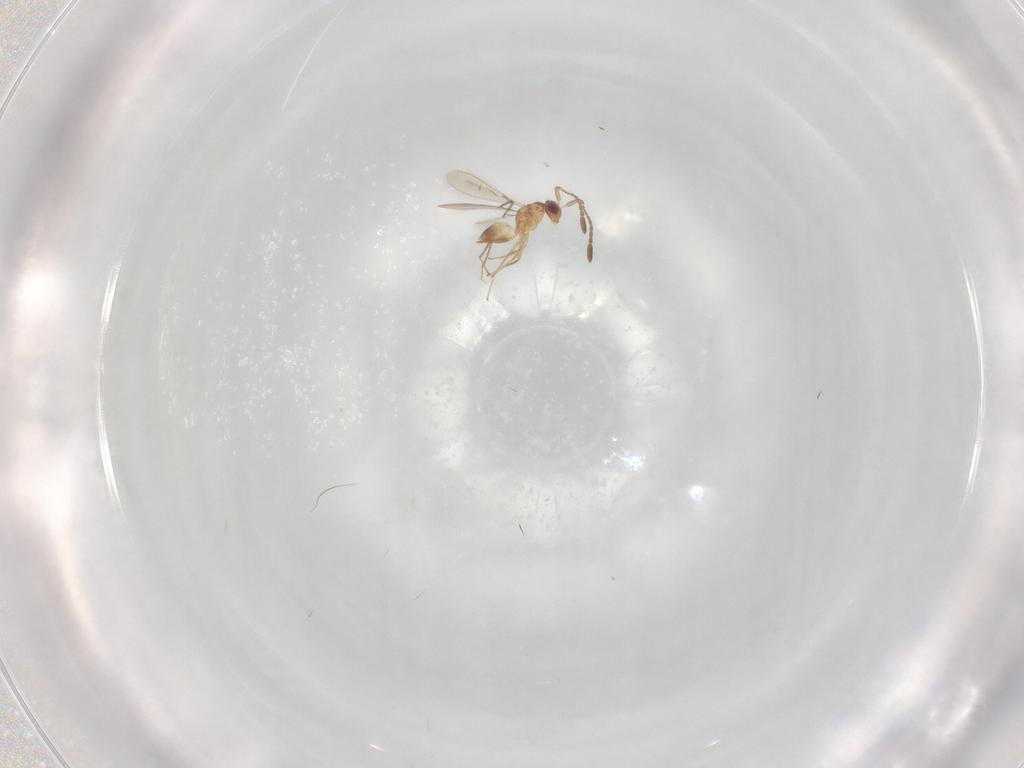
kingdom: Animalia
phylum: Arthropoda
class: Insecta
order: Hymenoptera
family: Mymaridae
